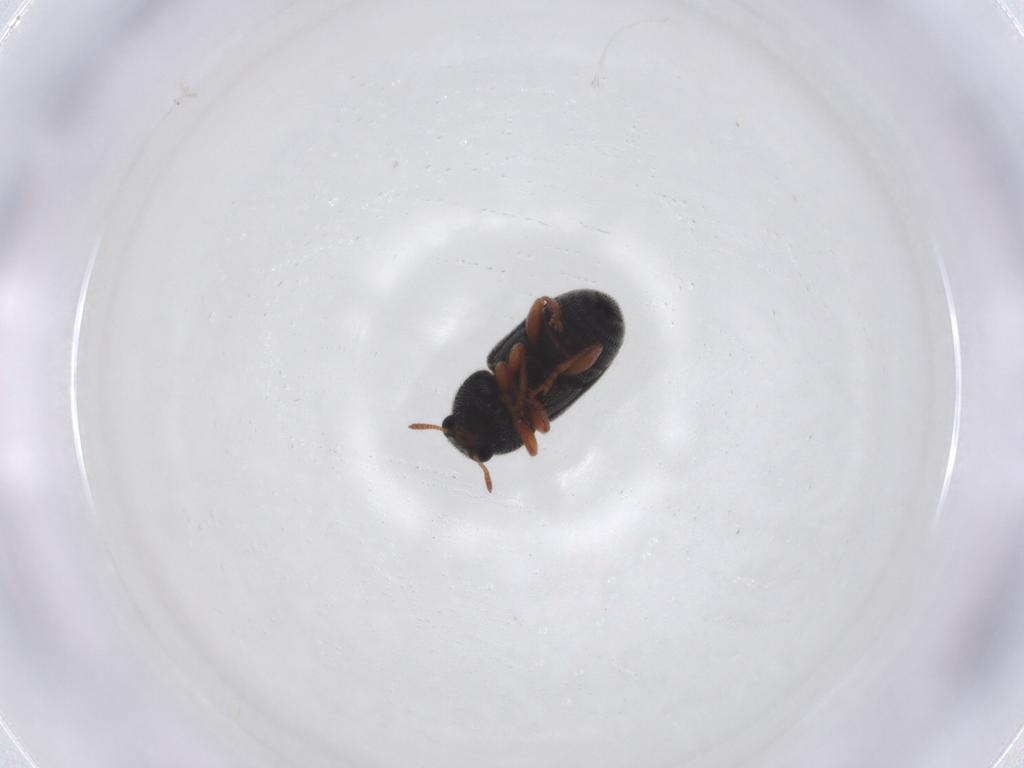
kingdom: Animalia
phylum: Arthropoda
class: Insecta
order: Coleoptera
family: Anthribidae
